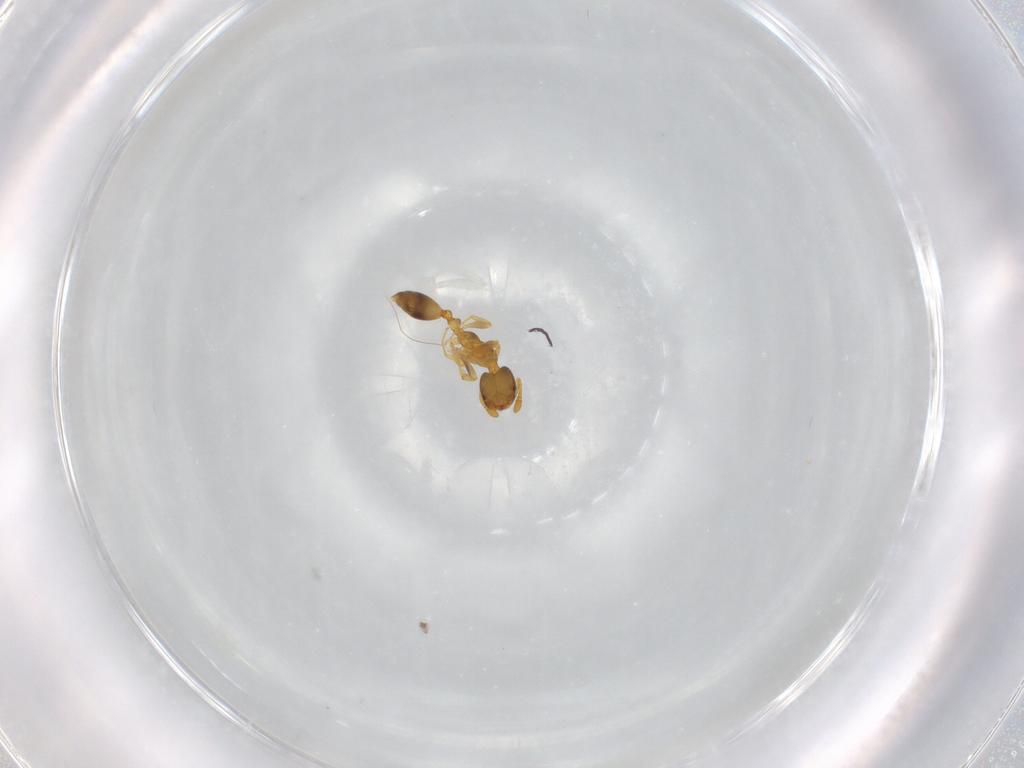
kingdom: Animalia
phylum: Arthropoda
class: Insecta
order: Hymenoptera
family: Formicidae
